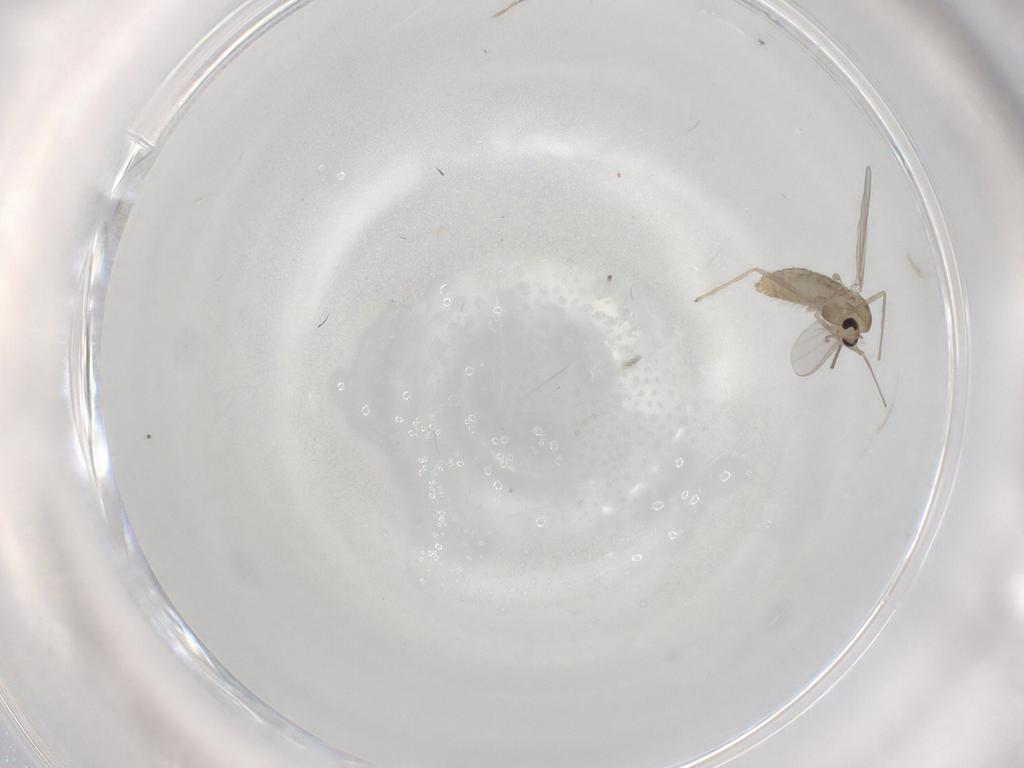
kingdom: Animalia
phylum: Arthropoda
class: Insecta
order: Diptera
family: Chironomidae
